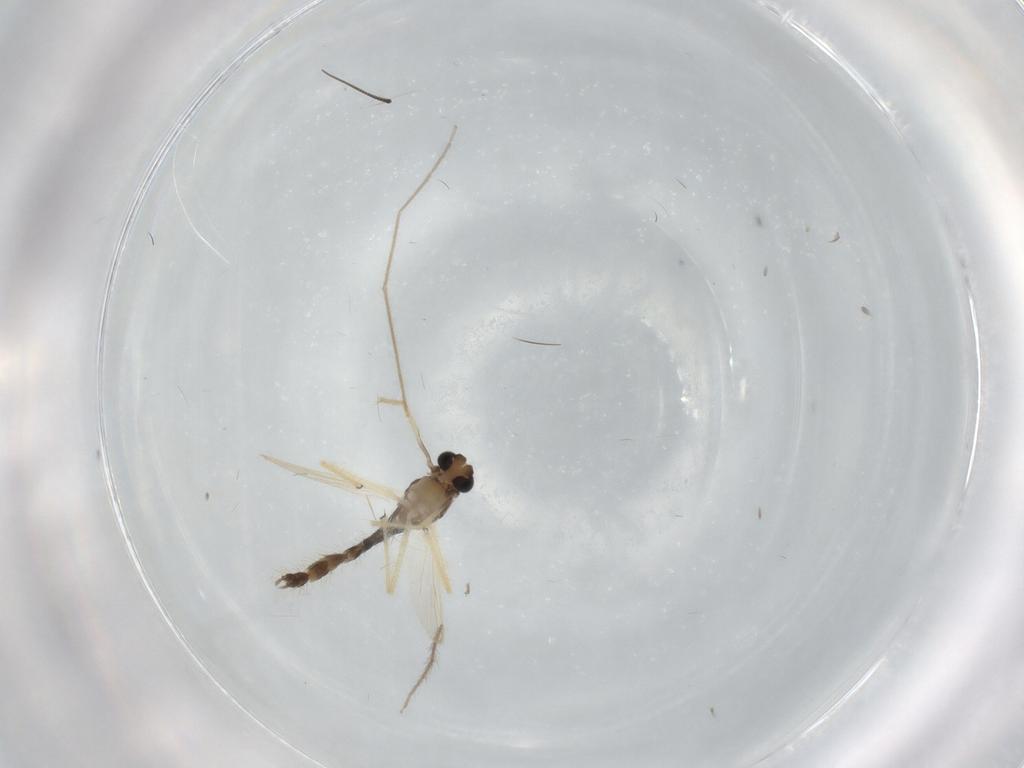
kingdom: Animalia
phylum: Arthropoda
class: Insecta
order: Diptera
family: Chironomidae
